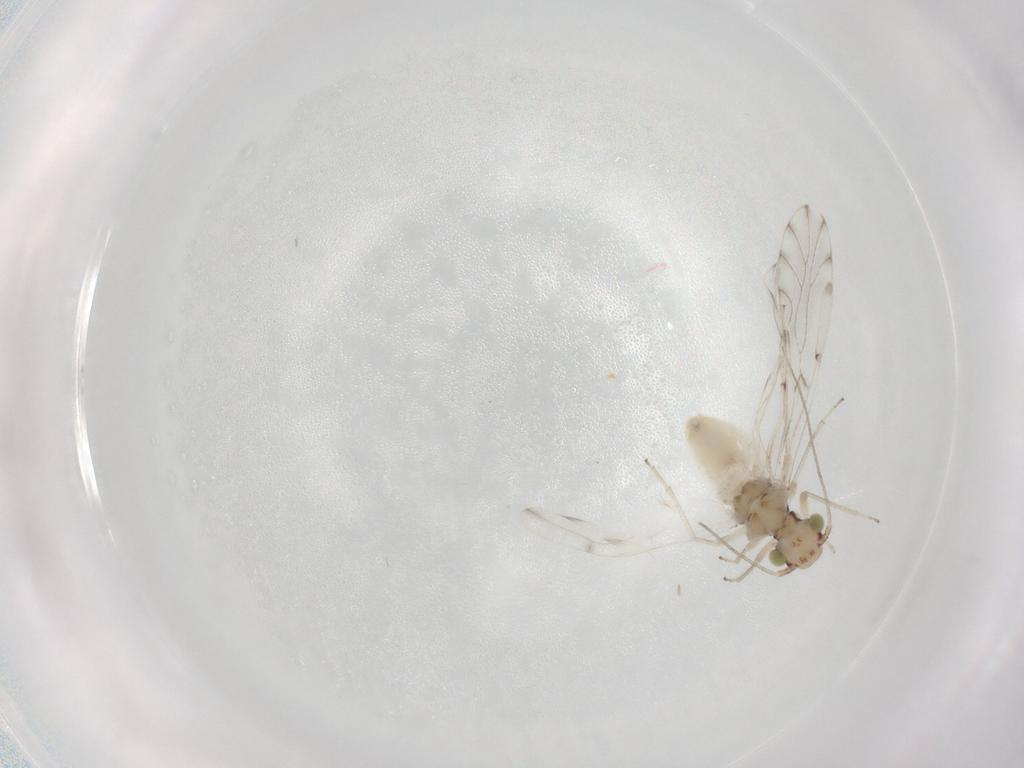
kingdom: Animalia
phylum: Arthropoda
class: Insecta
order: Psocodea
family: Ectopsocidae
